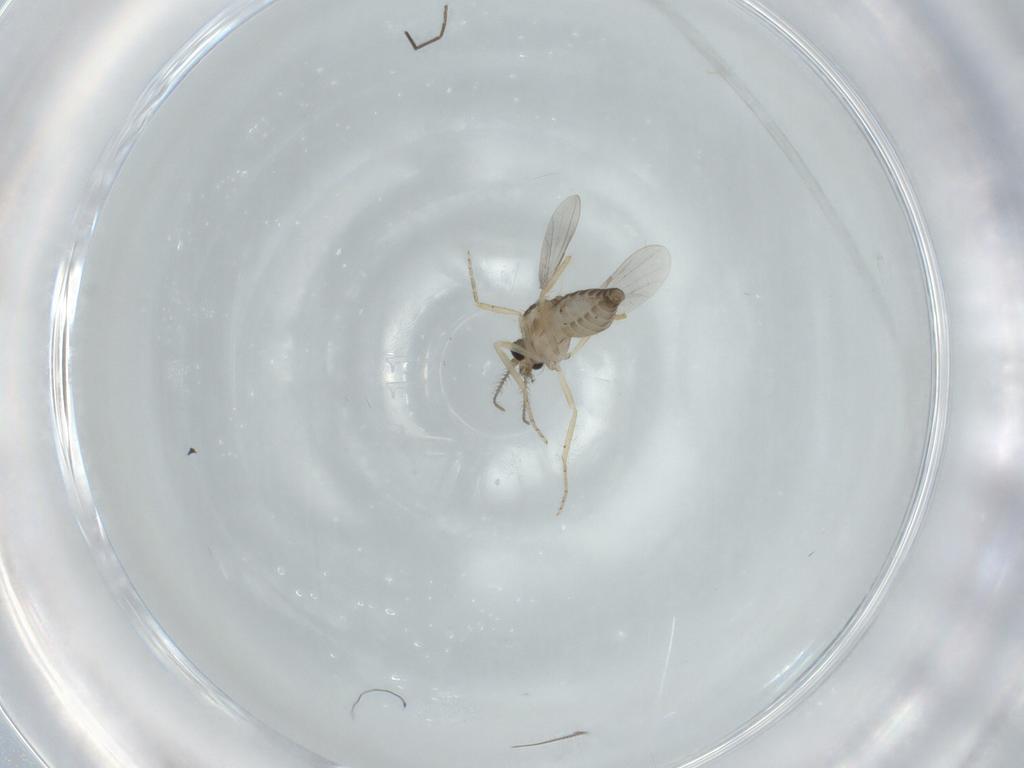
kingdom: Animalia
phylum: Arthropoda
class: Insecta
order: Diptera
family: Ceratopogonidae
